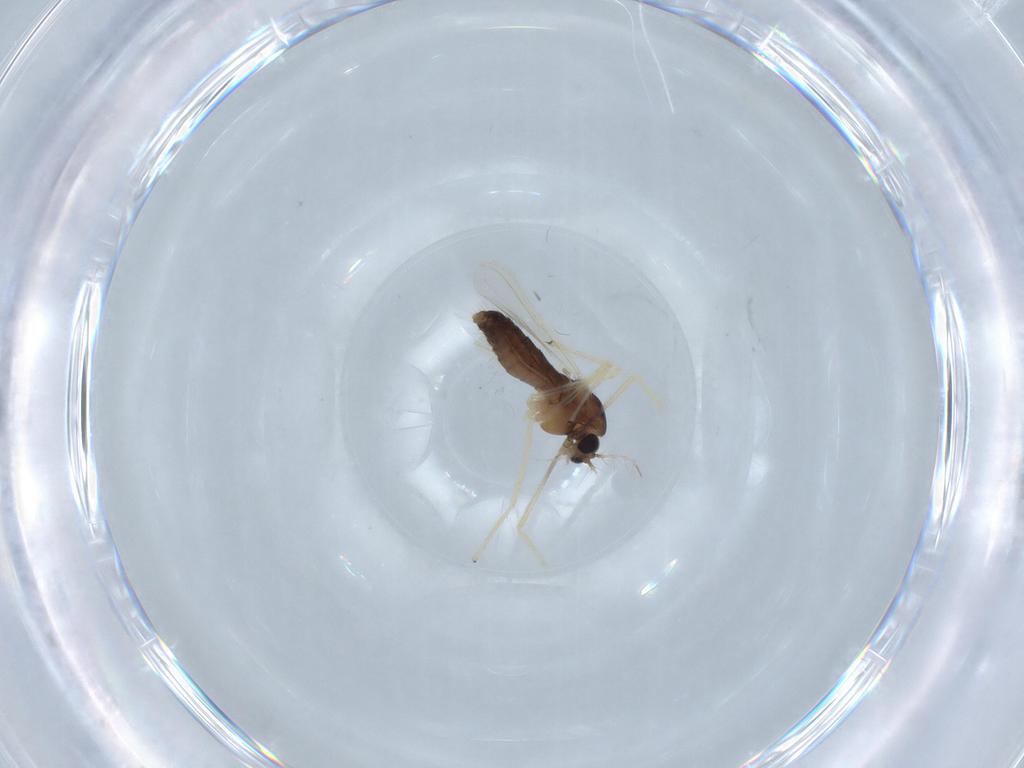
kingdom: Animalia
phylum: Arthropoda
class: Insecta
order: Diptera
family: Chironomidae
